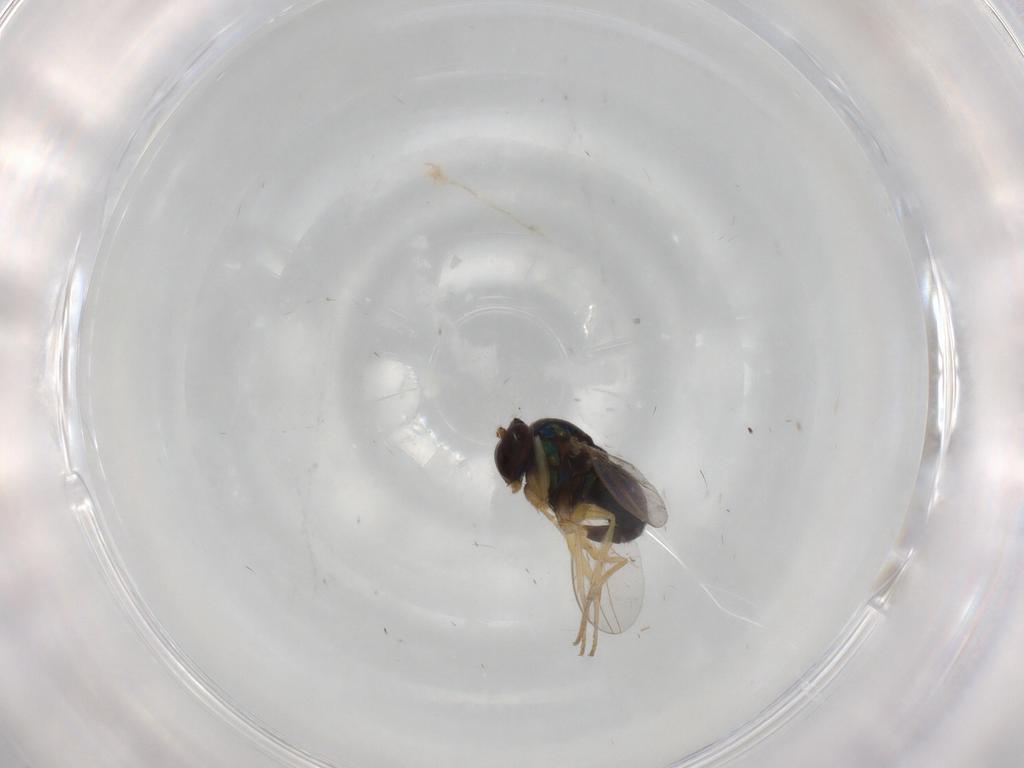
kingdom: Animalia
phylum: Arthropoda
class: Insecta
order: Diptera
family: Dolichopodidae
